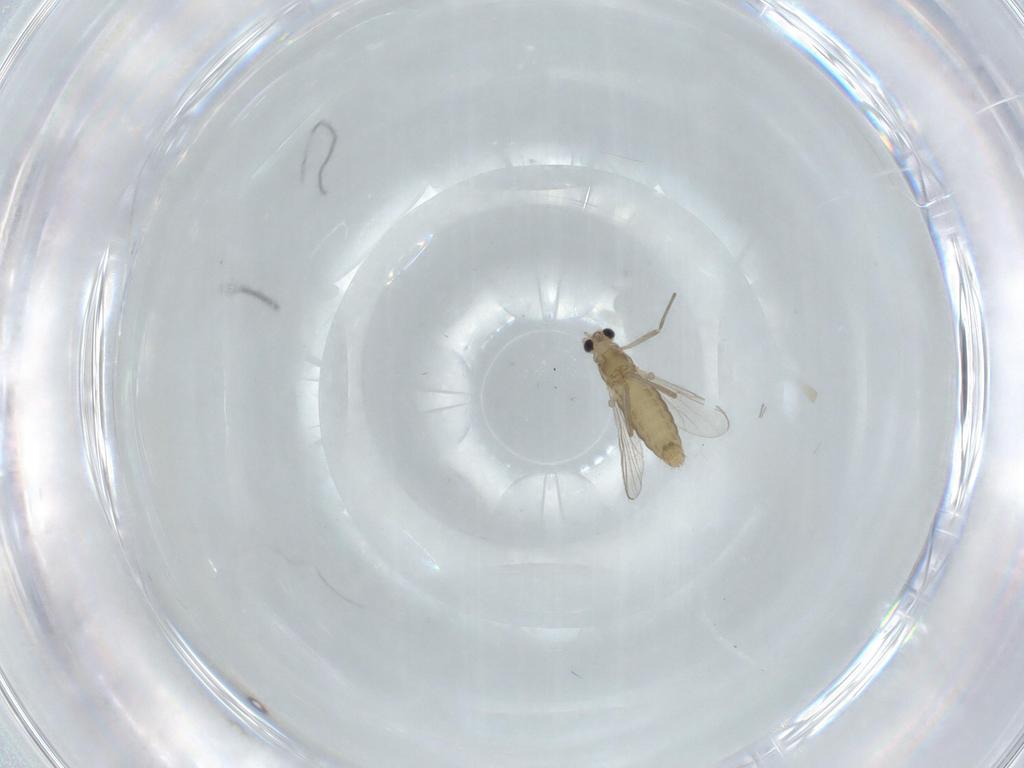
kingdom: Animalia
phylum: Arthropoda
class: Insecta
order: Diptera
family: Chironomidae
